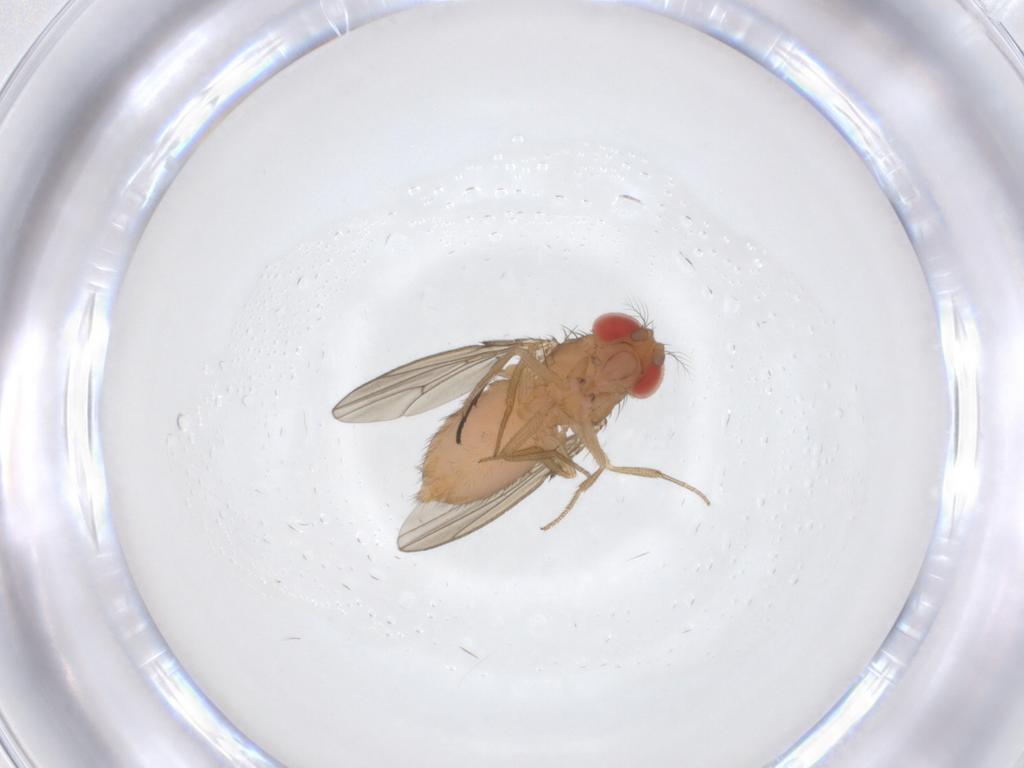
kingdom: Animalia
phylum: Arthropoda
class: Insecta
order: Diptera
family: Drosophilidae
